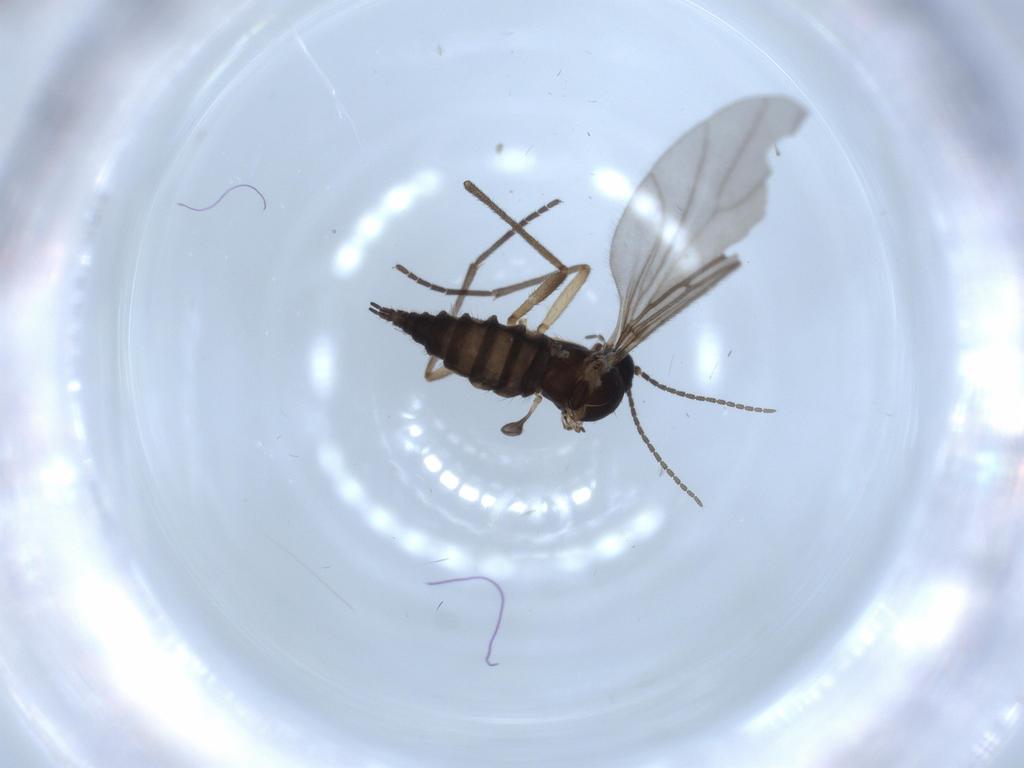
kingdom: Animalia
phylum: Arthropoda
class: Insecta
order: Diptera
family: Sciaridae
